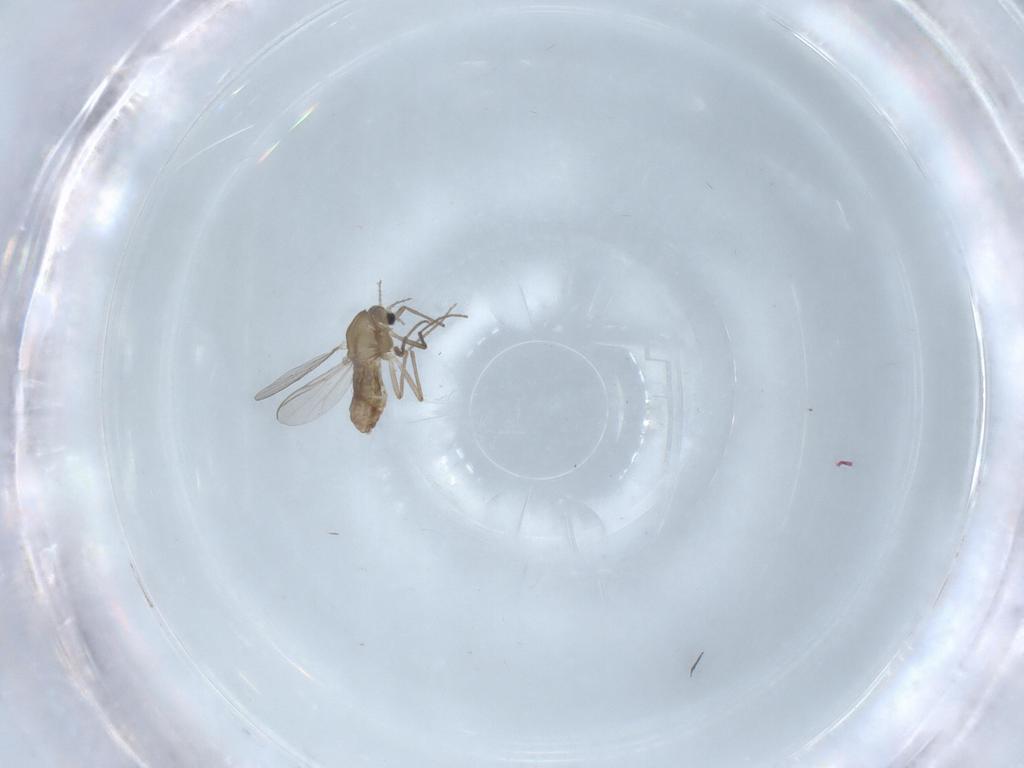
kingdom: Animalia
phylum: Arthropoda
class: Insecta
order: Diptera
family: Chironomidae
